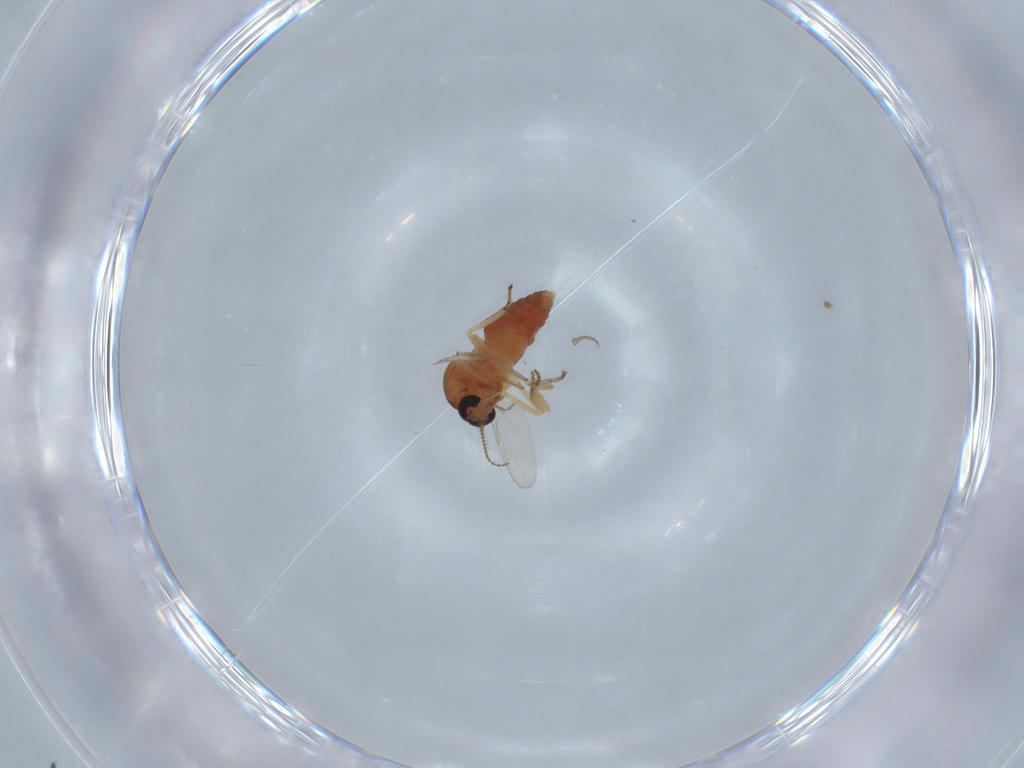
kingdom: Animalia
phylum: Arthropoda
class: Insecta
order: Diptera
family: Ceratopogonidae
